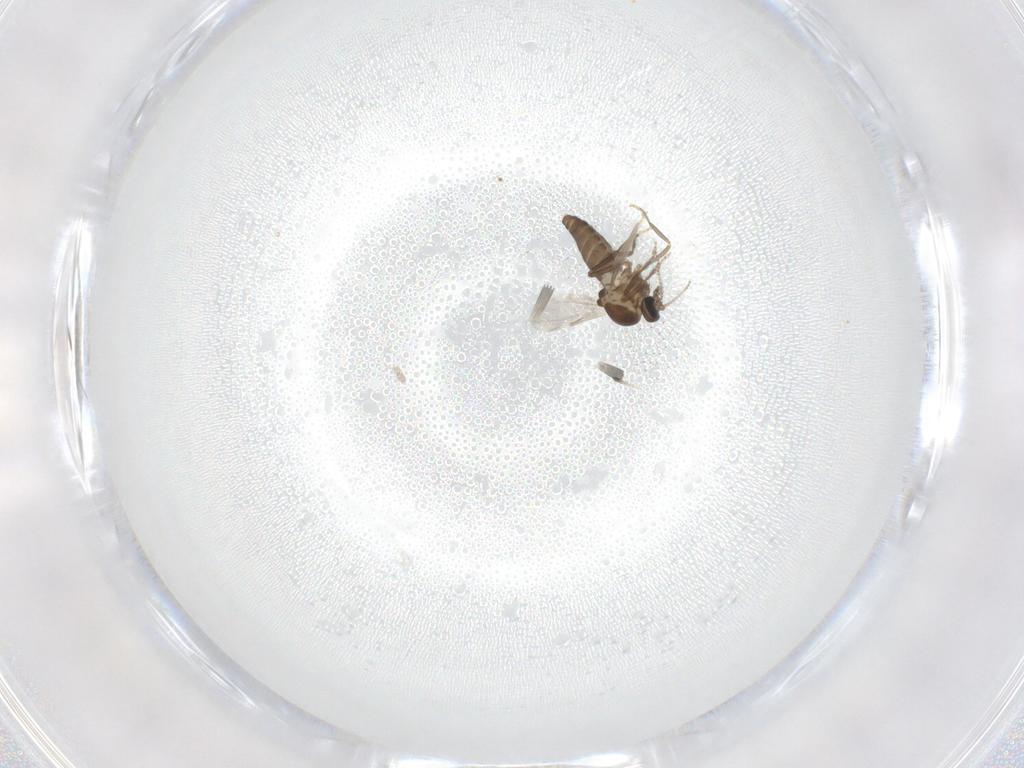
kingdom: Animalia
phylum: Arthropoda
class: Insecta
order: Diptera
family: Ceratopogonidae
